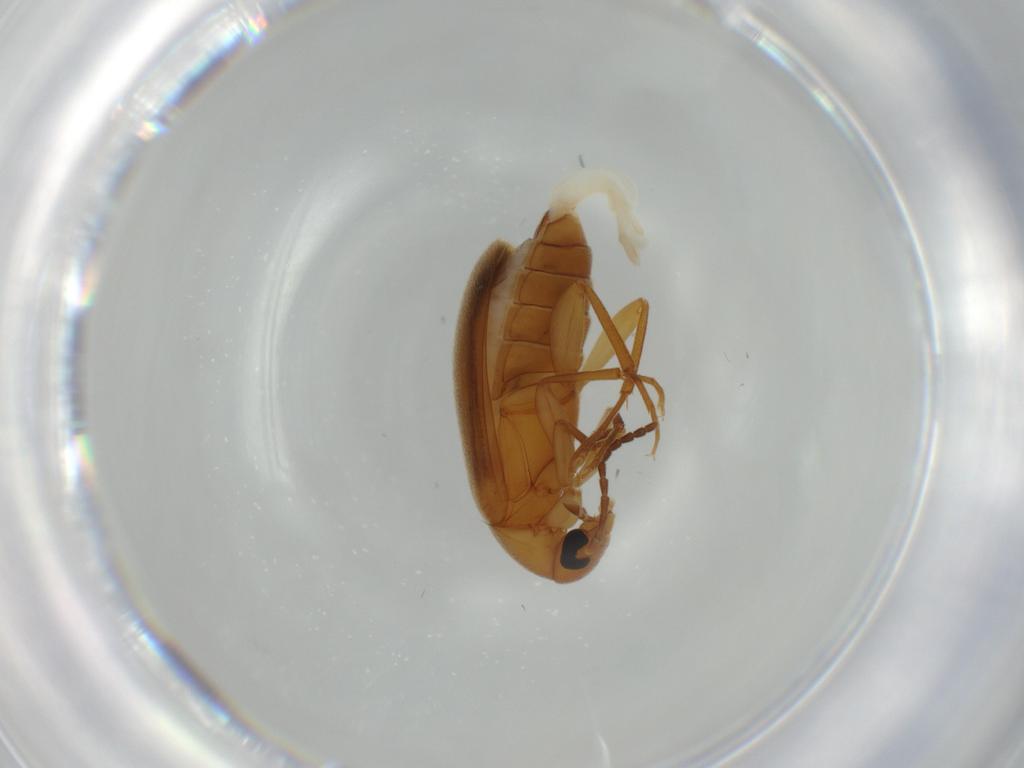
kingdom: Animalia
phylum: Arthropoda
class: Insecta
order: Coleoptera
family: Scraptiidae
